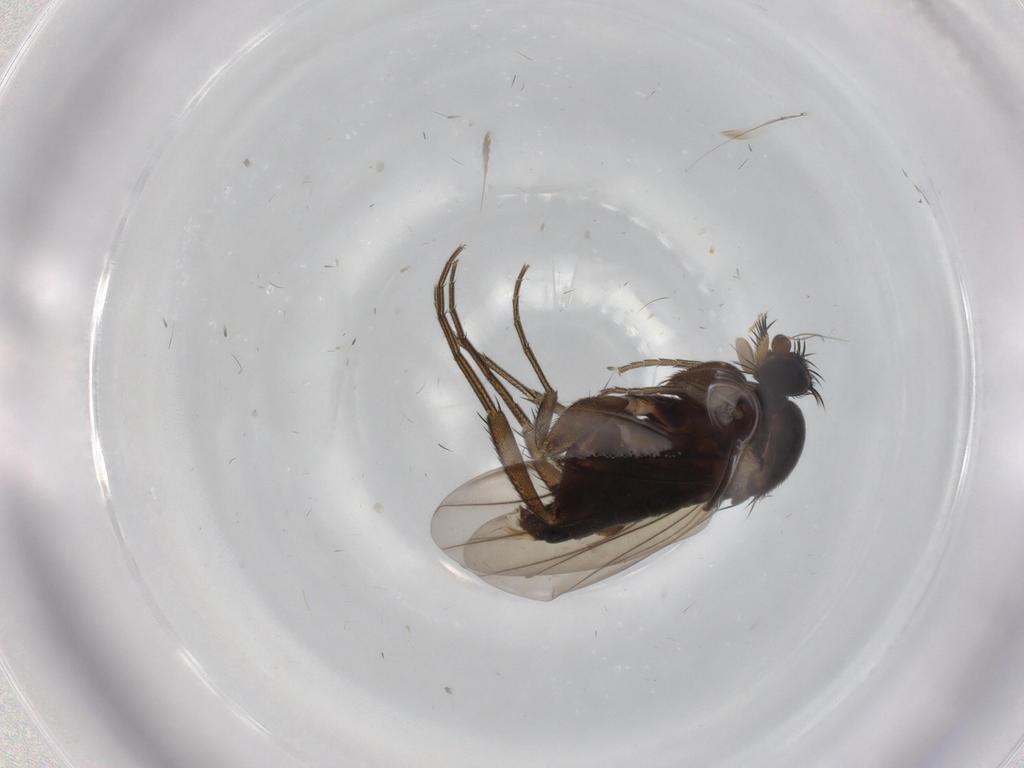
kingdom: Animalia
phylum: Arthropoda
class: Insecta
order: Diptera
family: Phoridae
